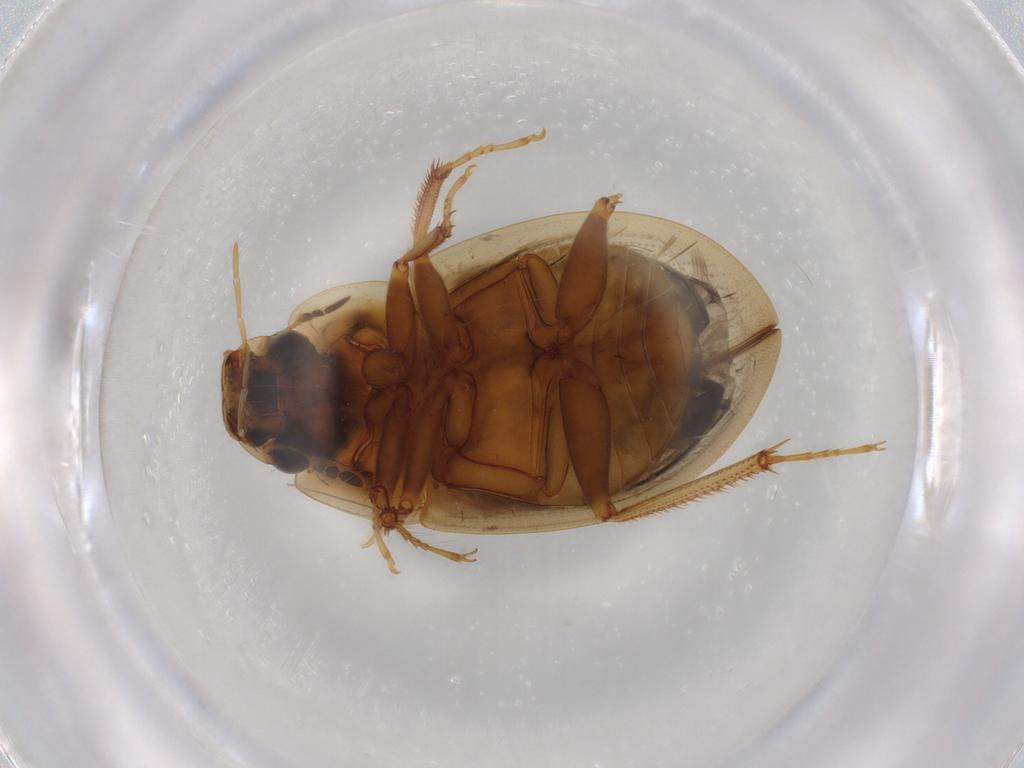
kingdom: Animalia
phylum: Arthropoda
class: Insecta
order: Coleoptera
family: Hydrophilidae
